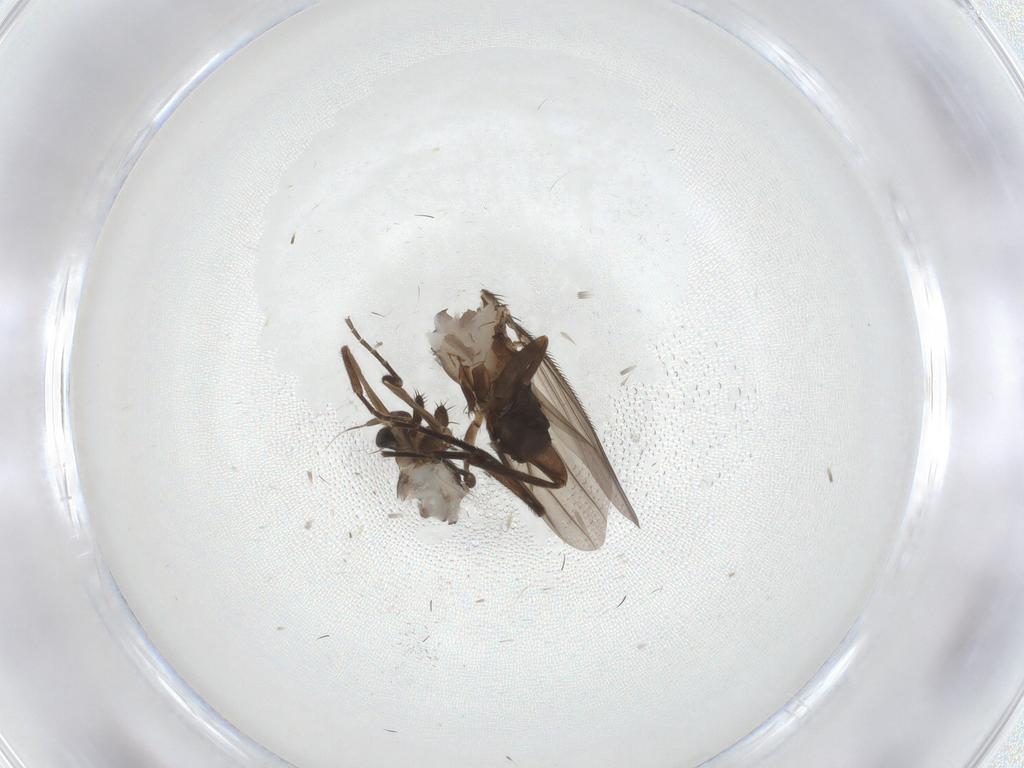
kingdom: Animalia
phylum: Arthropoda
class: Insecta
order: Diptera
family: Phoridae
